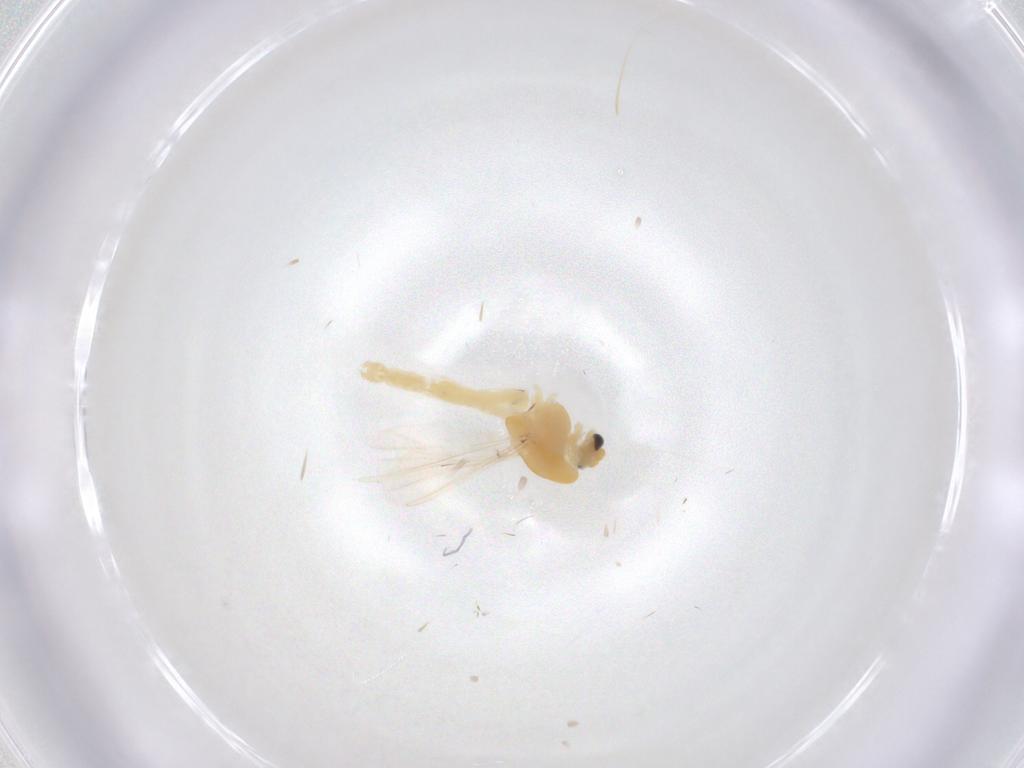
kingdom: Animalia
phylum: Arthropoda
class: Insecta
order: Diptera
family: Chironomidae
